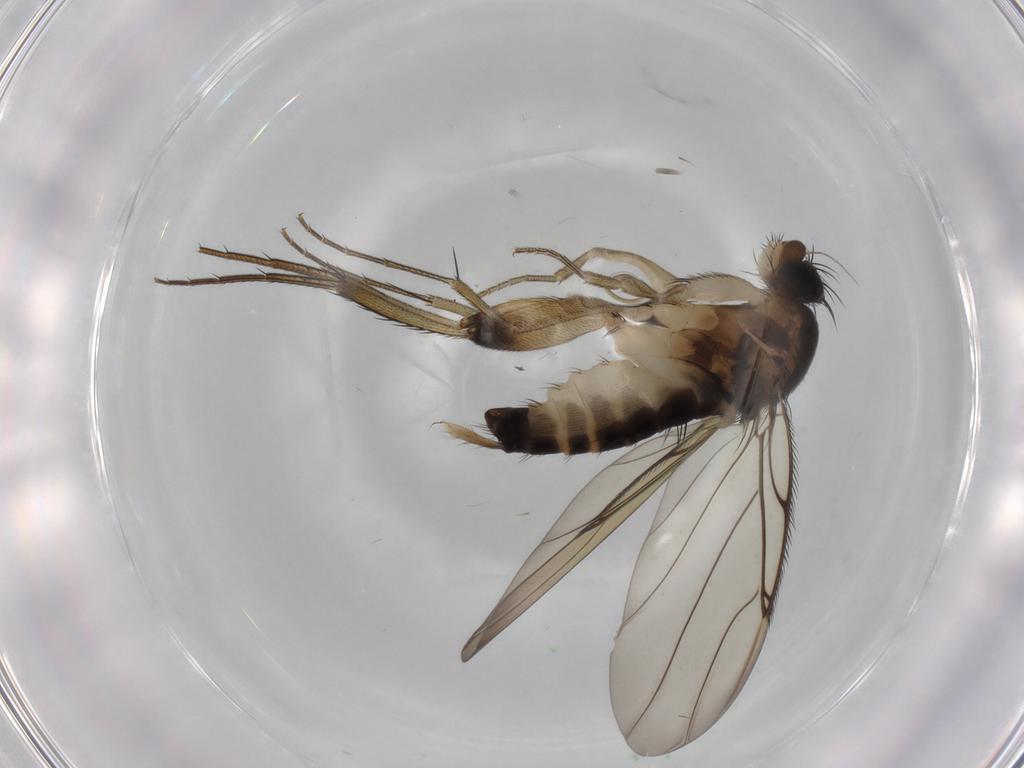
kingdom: Animalia
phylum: Arthropoda
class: Insecta
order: Diptera
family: Phoridae
